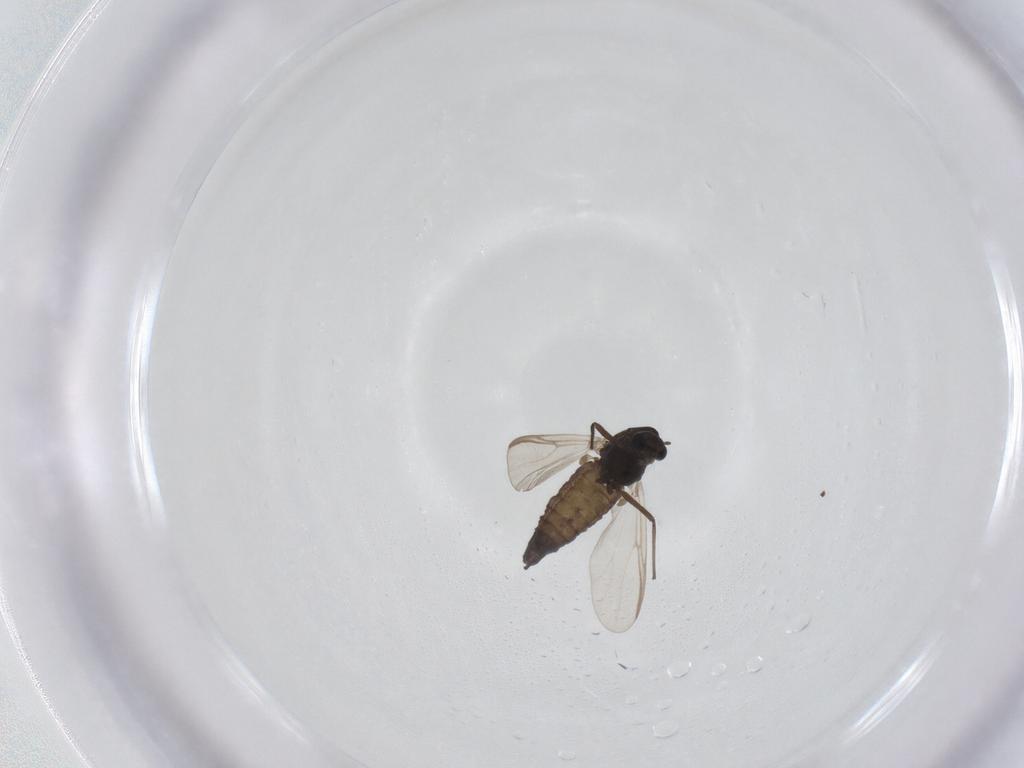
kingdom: Animalia
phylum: Arthropoda
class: Insecta
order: Diptera
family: Chironomidae
